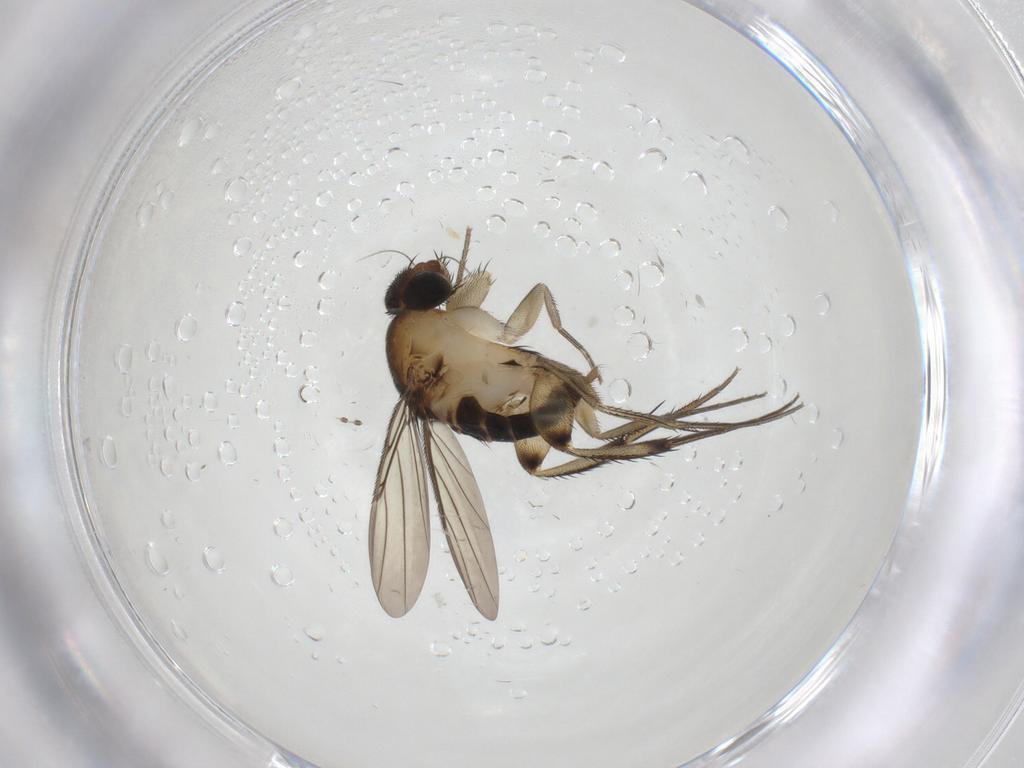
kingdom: Animalia
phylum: Arthropoda
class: Insecta
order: Diptera
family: Phoridae
